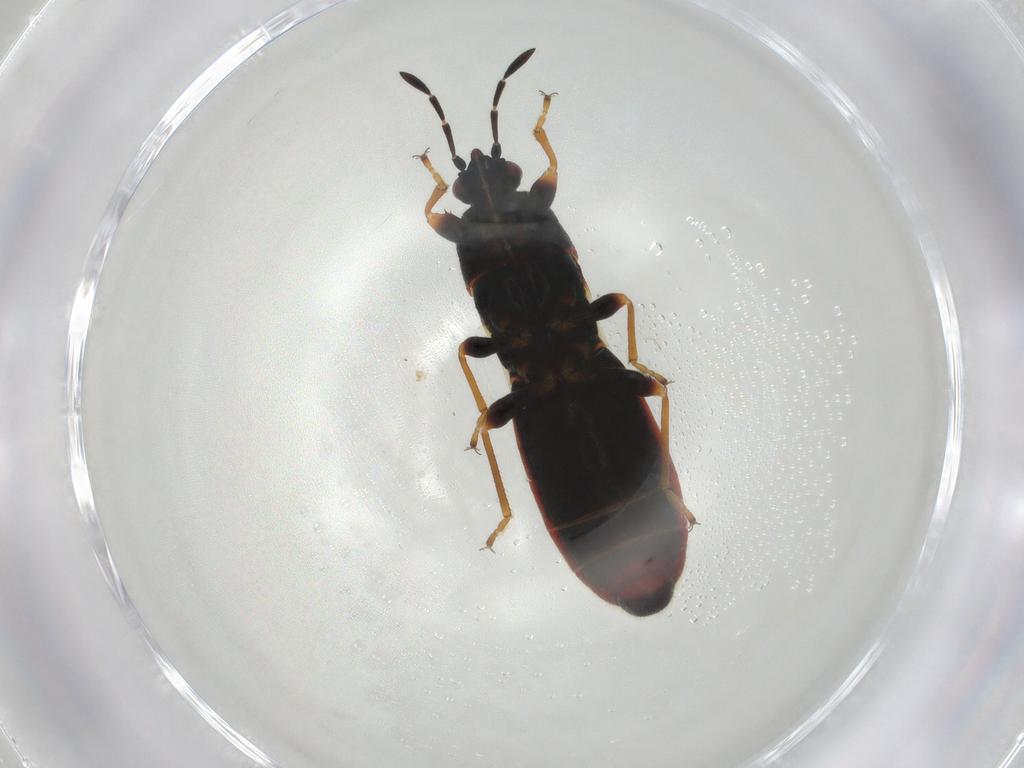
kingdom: Animalia
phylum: Arthropoda
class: Insecta
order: Hemiptera
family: Blissidae
